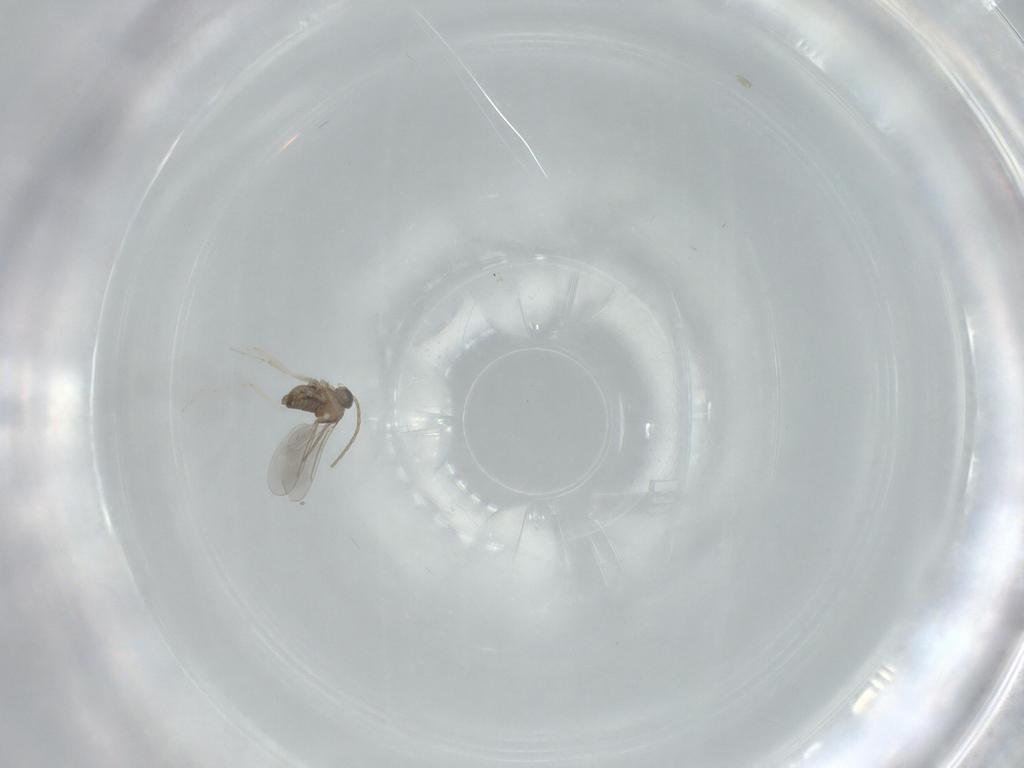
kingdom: Animalia
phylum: Arthropoda
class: Insecta
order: Diptera
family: Cecidomyiidae
